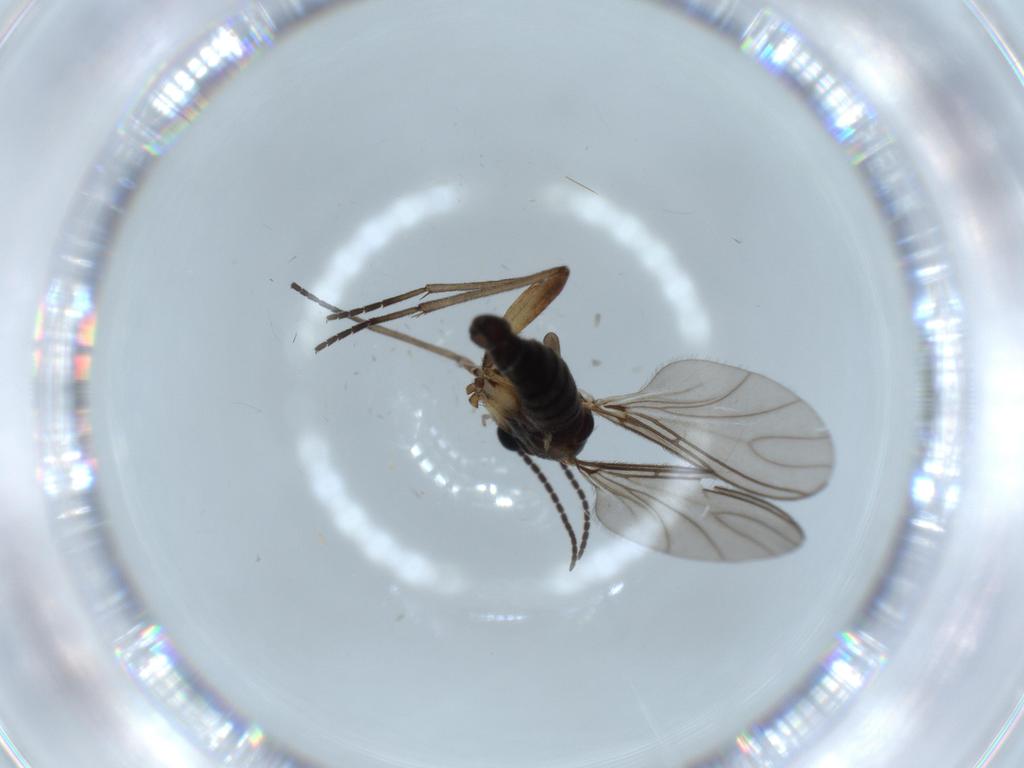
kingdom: Animalia
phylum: Arthropoda
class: Insecta
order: Diptera
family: Sciaridae
